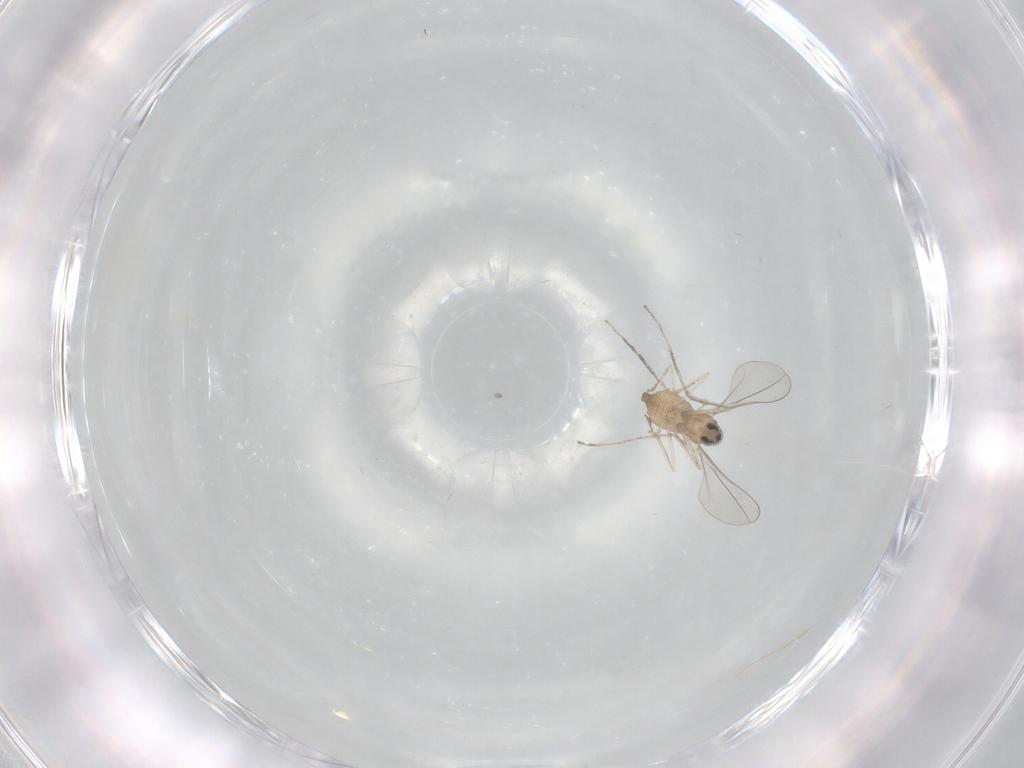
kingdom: Animalia
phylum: Arthropoda
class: Insecta
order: Diptera
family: Cecidomyiidae
